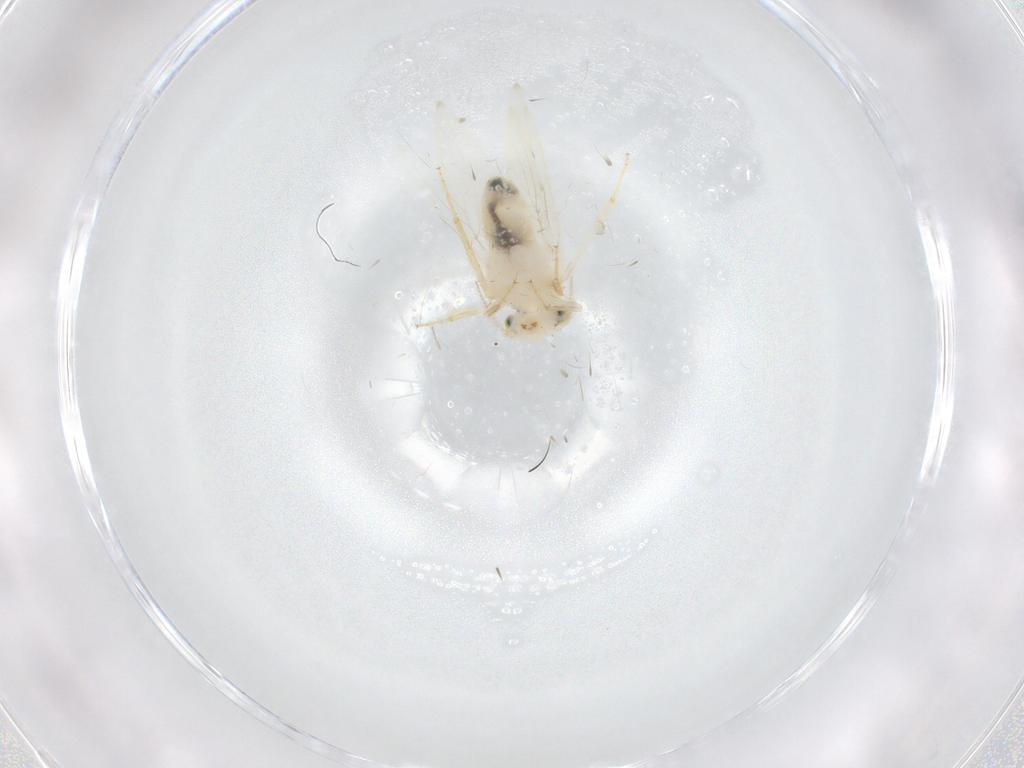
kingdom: Animalia
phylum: Arthropoda
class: Insecta
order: Psocodea
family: Lepidopsocidae
